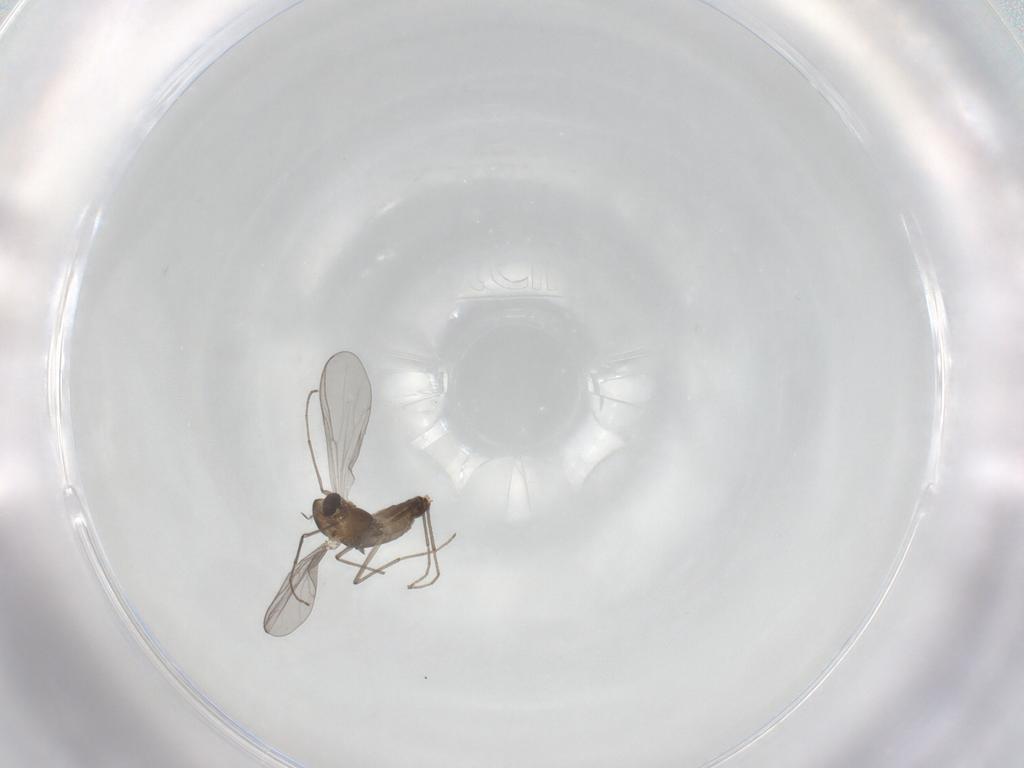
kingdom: Animalia
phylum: Arthropoda
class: Insecta
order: Diptera
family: Chironomidae
